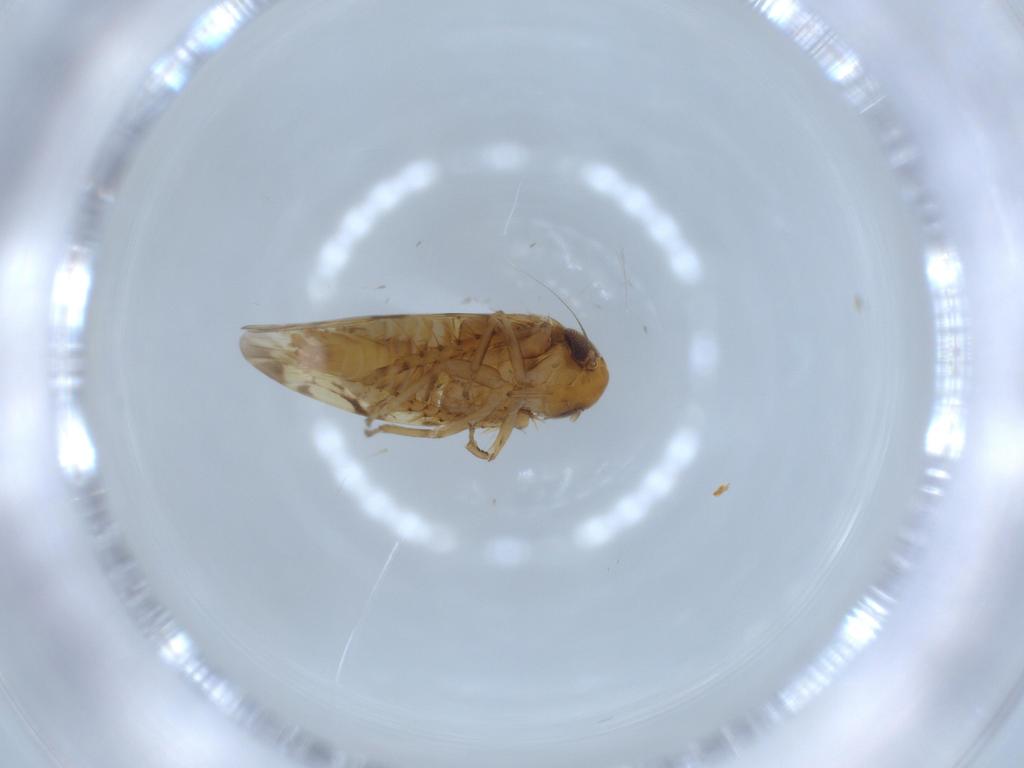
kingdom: Animalia
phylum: Arthropoda
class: Insecta
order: Hemiptera
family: Cicadellidae
